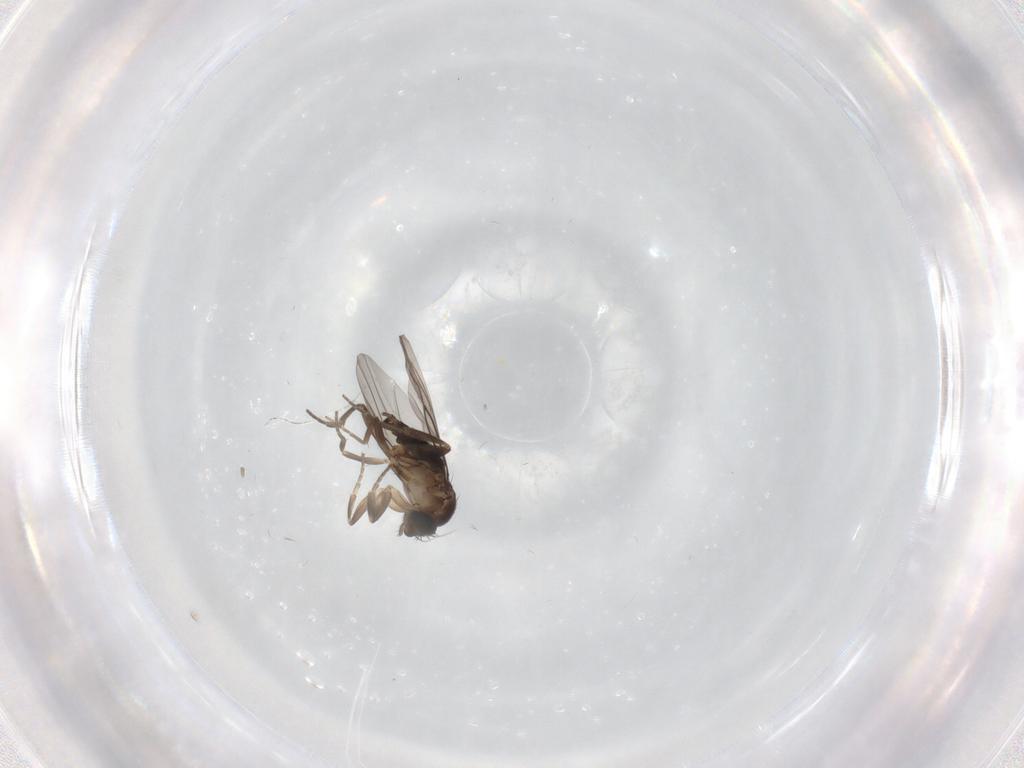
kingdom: Animalia
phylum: Arthropoda
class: Insecta
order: Diptera
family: Phoridae
